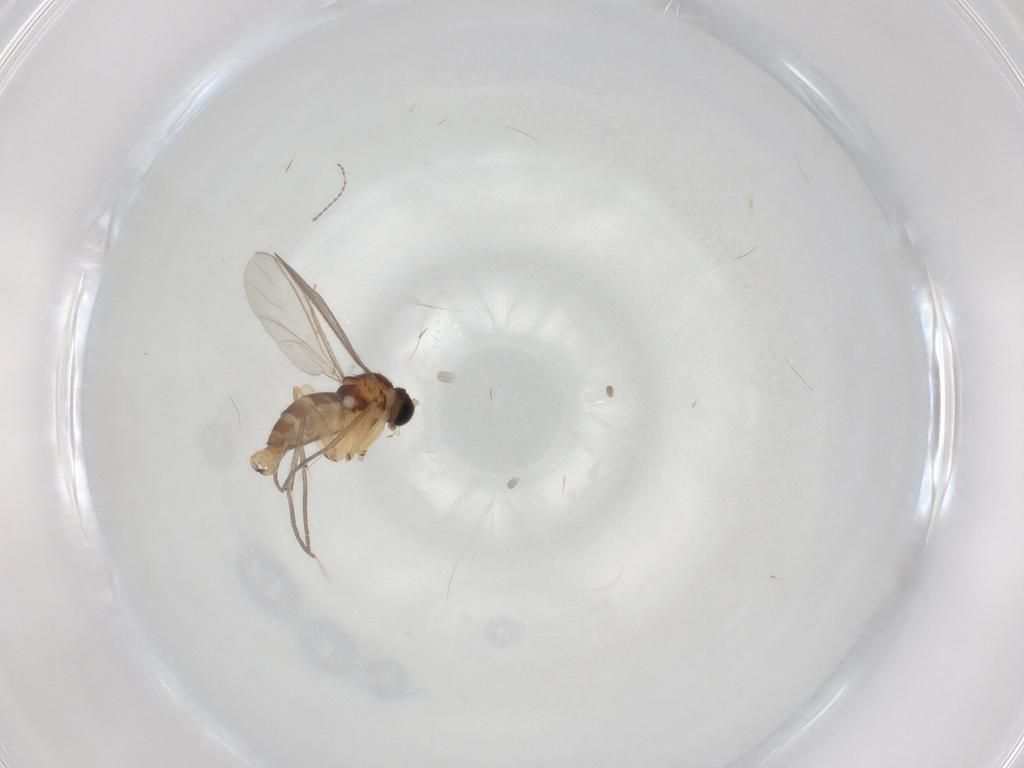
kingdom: Animalia
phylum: Arthropoda
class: Insecta
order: Diptera
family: Cecidomyiidae
